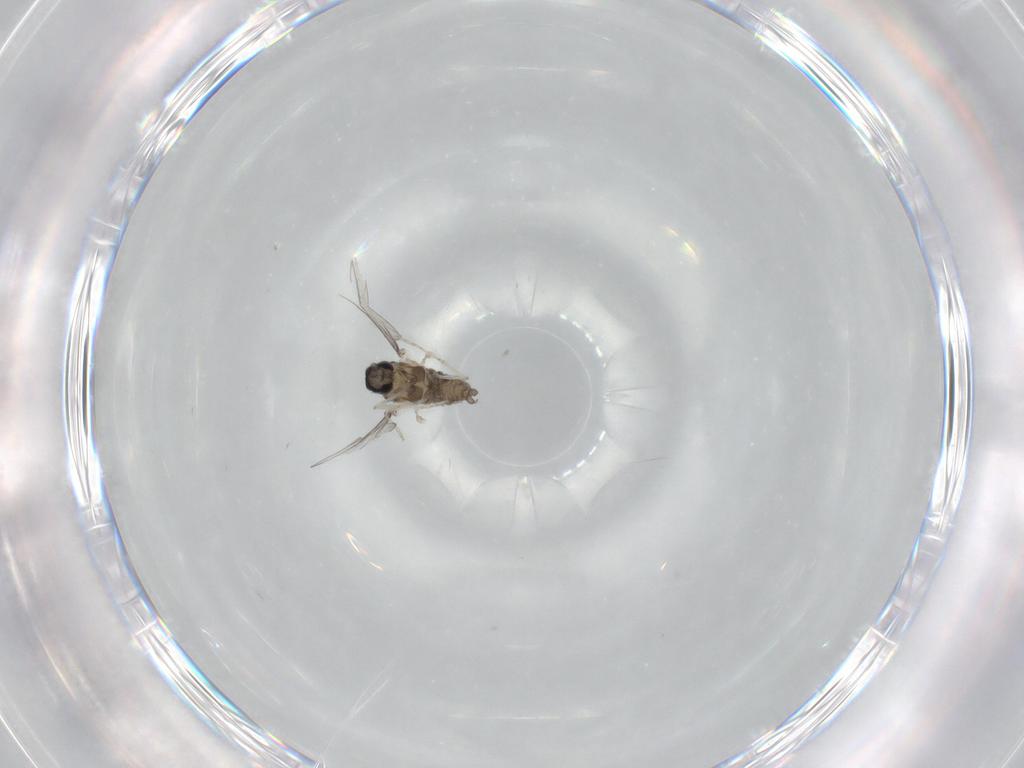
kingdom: Animalia
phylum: Arthropoda
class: Insecta
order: Diptera
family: Cecidomyiidae
